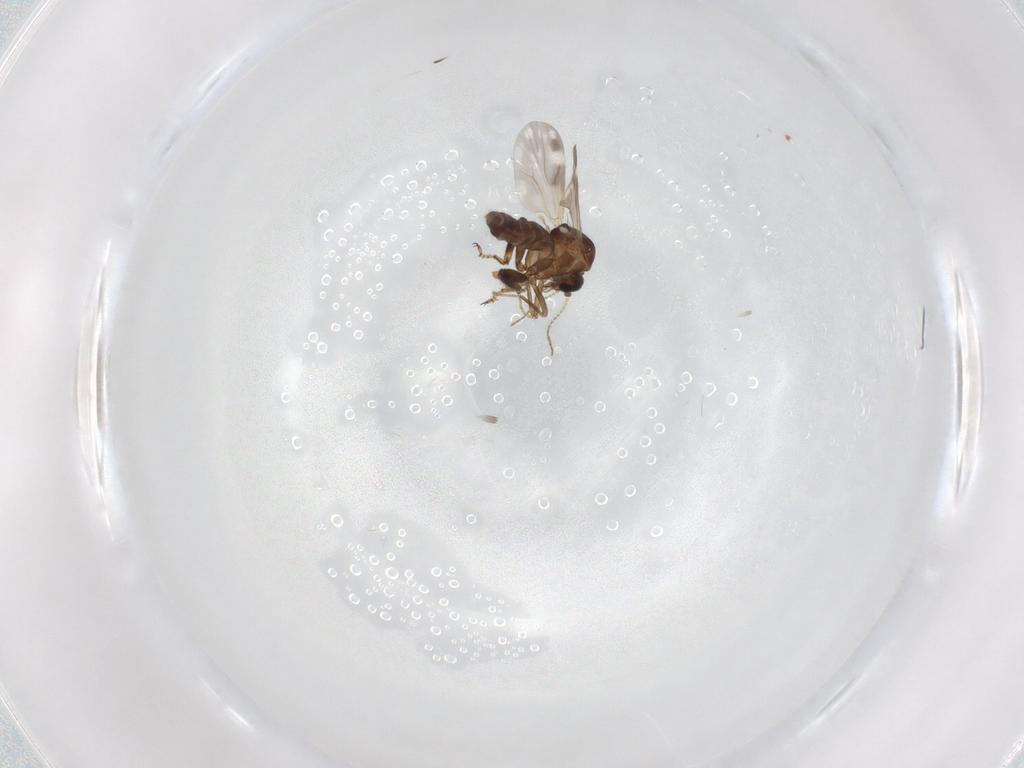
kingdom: Animalia
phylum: Arthropoda
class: Insecta
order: Diptera
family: Ceratopogonidae
